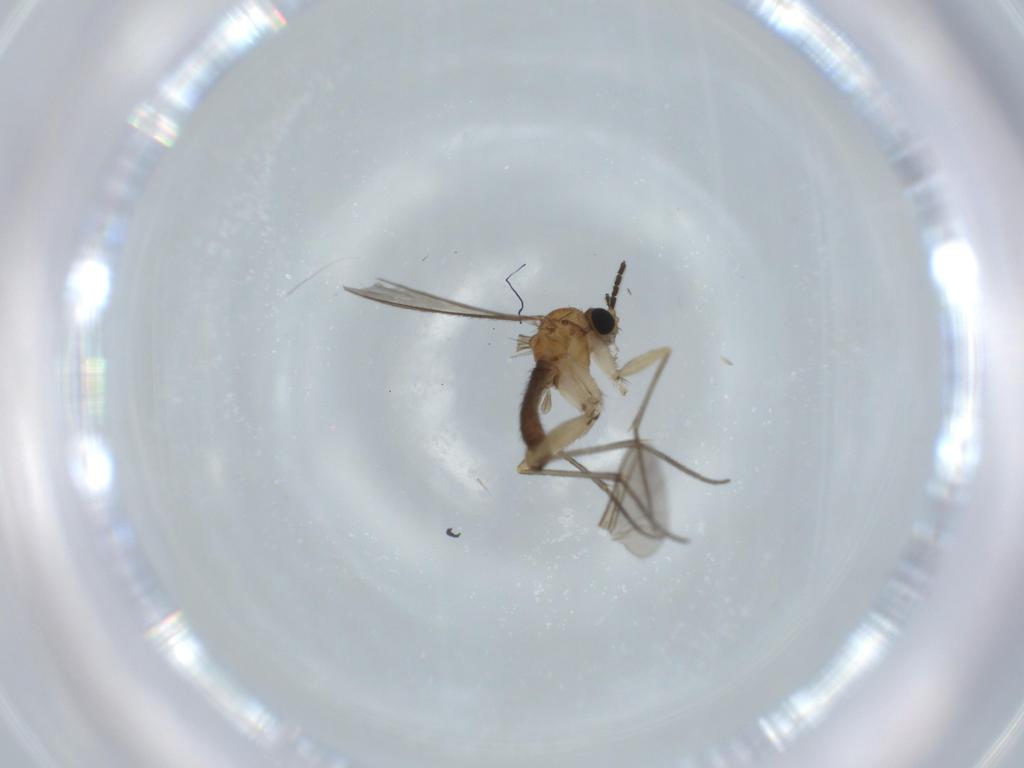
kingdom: Animalia
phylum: Arthropoda
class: Insecta
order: Diptera
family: Sciaridae
